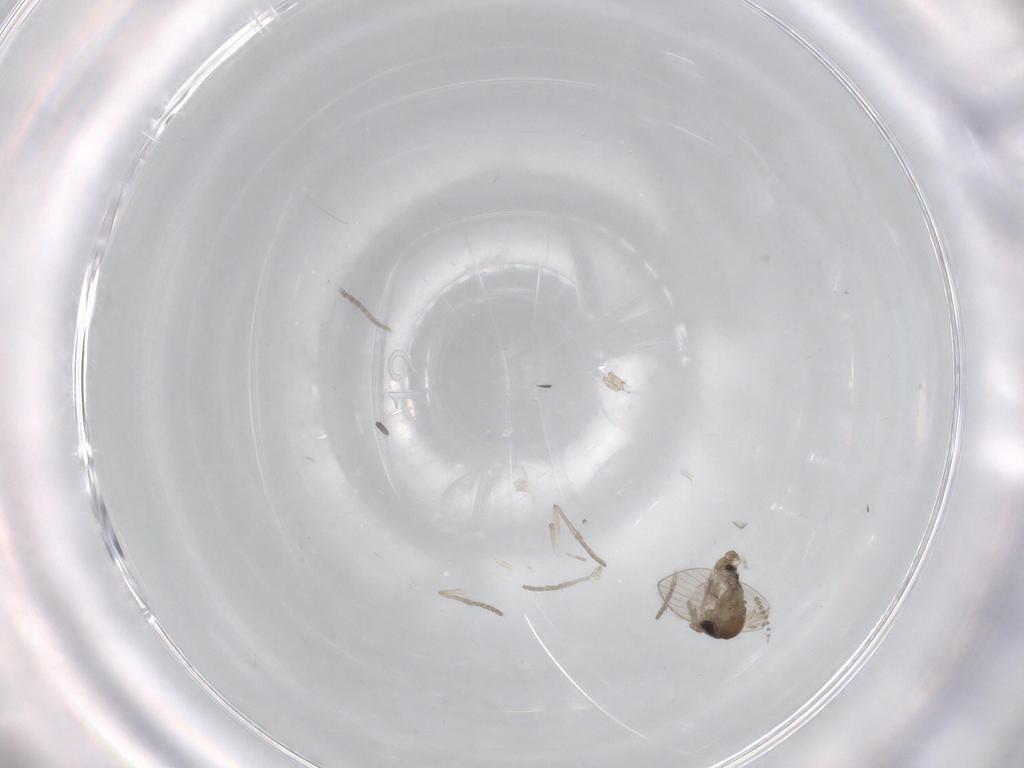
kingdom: Animalia
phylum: Arthropoda
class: Insecta
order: Diptera
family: Psychodidae
